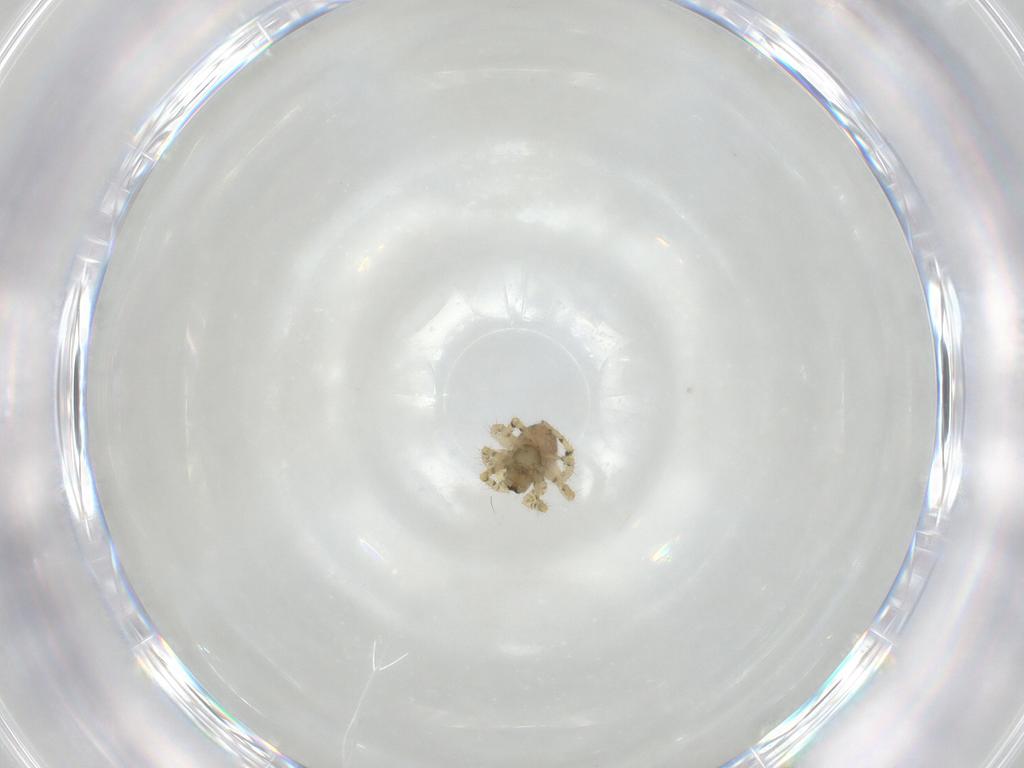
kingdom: Animalia
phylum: Arthropoda
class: Arachnida
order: Araneae
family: Theridiidae
